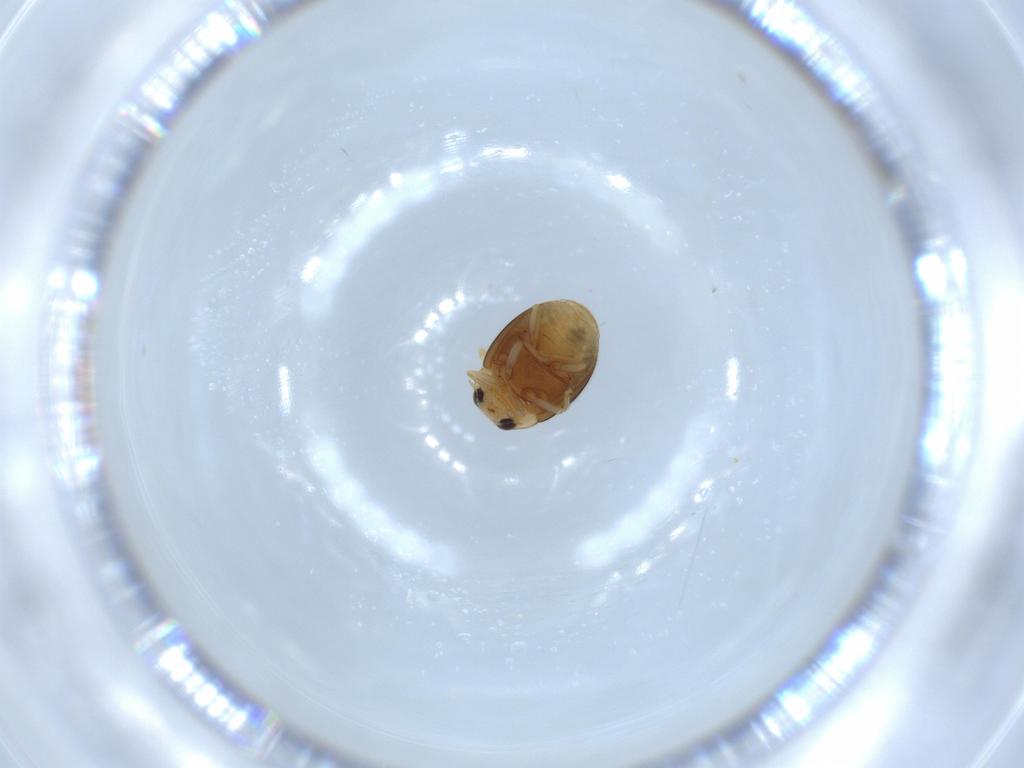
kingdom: Animalia
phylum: Arthropoda
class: Insecta
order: Coleoptera
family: Coccinellidae
